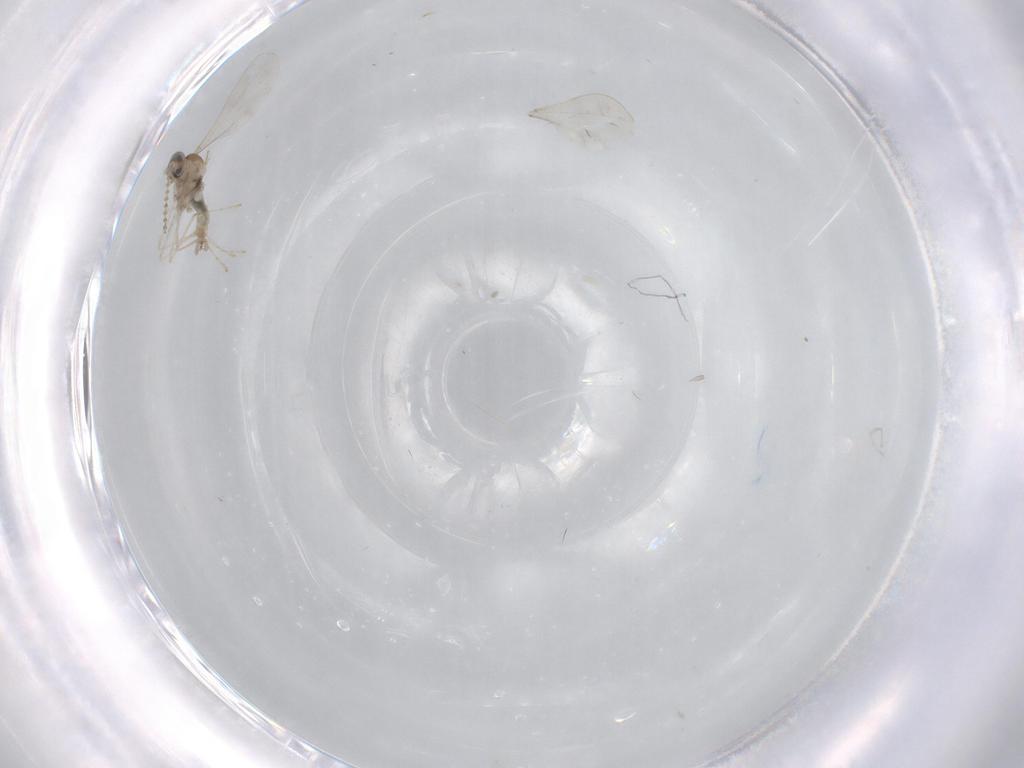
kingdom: Animalia
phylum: Arthropoda
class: Insecta
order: Diptera
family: Cecidomyiidae
